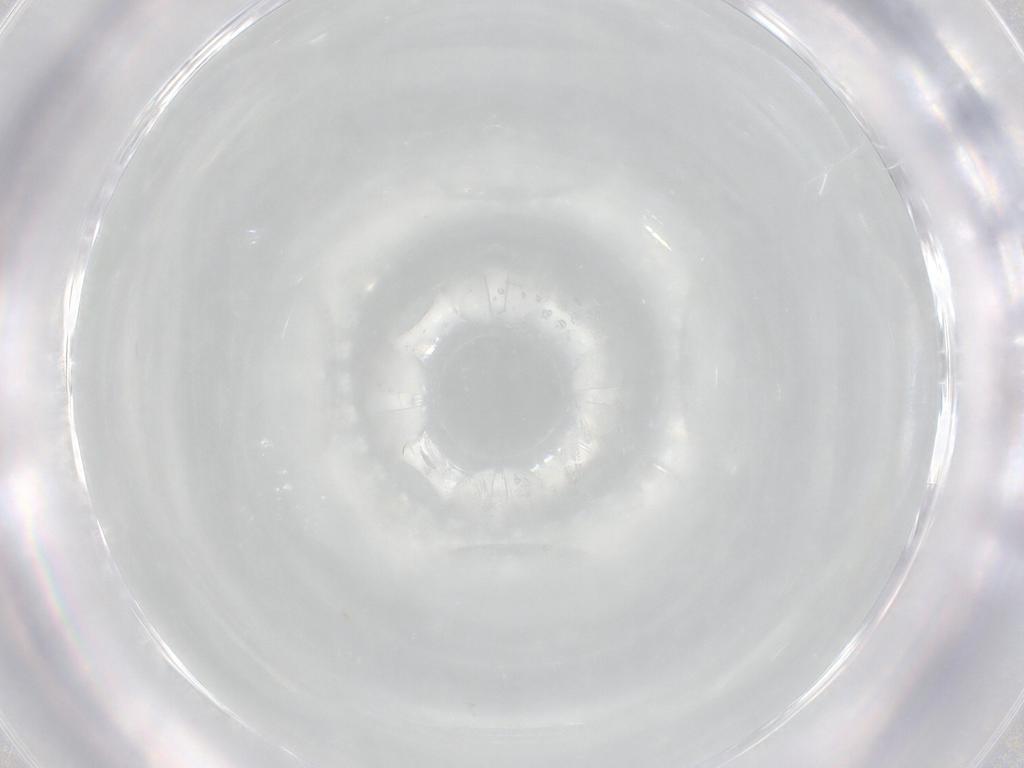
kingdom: Animalia
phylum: Arthropoda
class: Insecta
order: Diptera
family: Syrphidae
